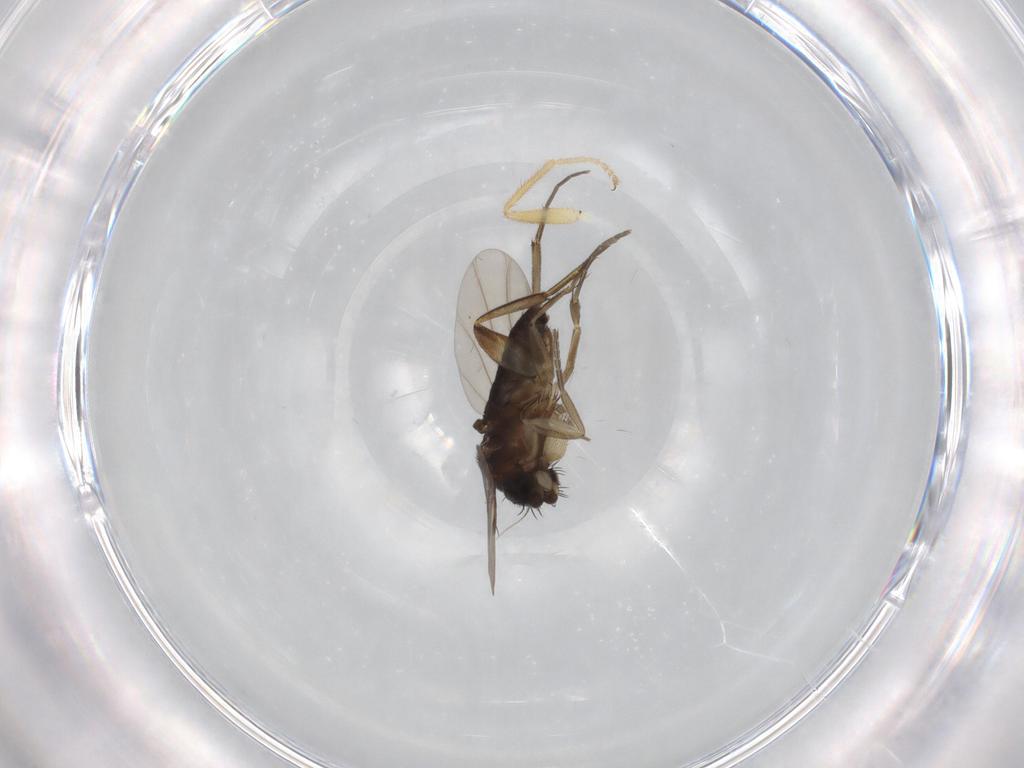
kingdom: Animalia
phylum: Arthropoda
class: Insecta
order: Diptera
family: Phoridae
